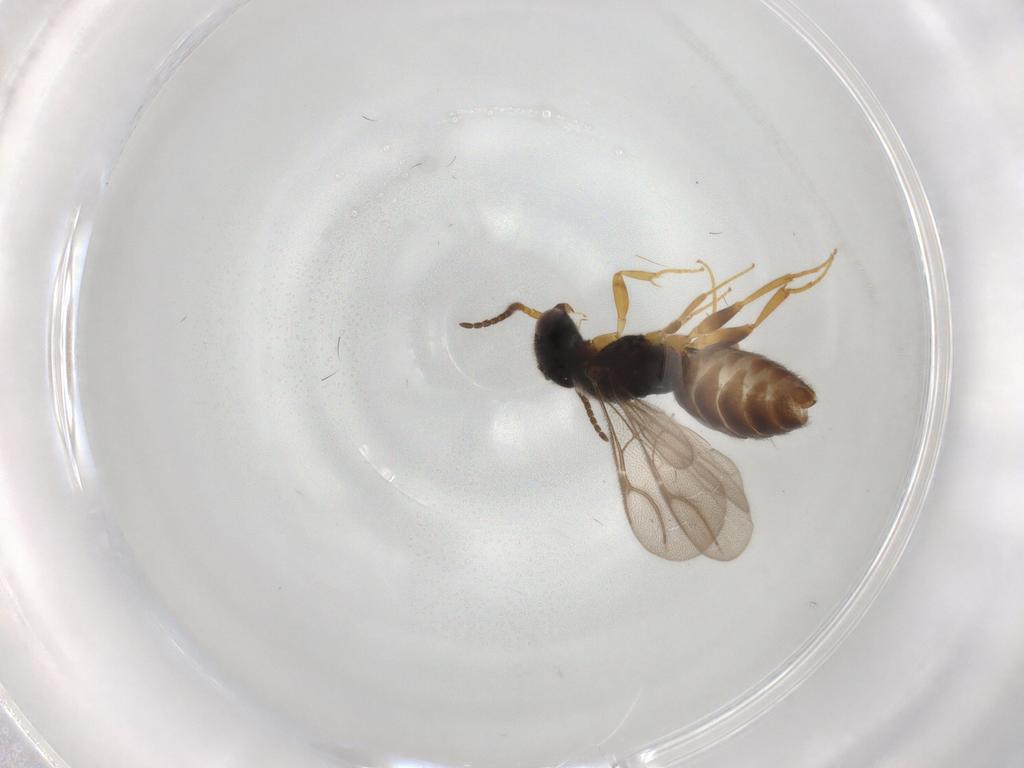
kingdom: Animalia
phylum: Arthropoda
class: Insecta
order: Hymenoptera
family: Bethylidae
